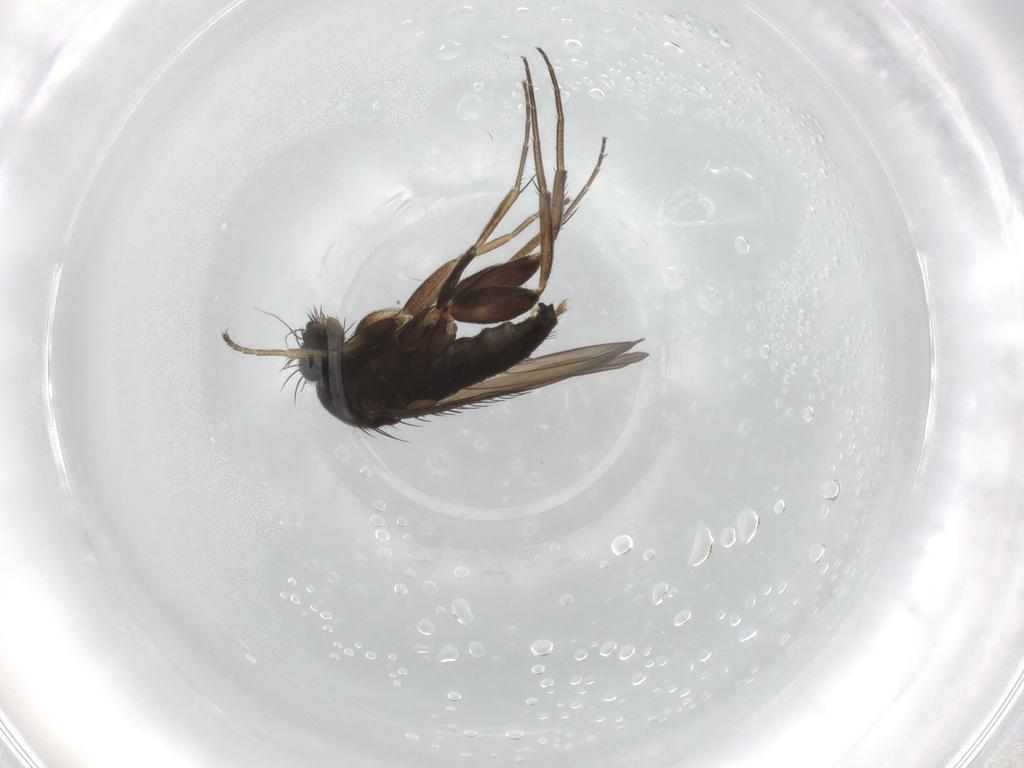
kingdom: Animalia
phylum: Arthropoda
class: Insecta
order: Diptera
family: Phoridae
